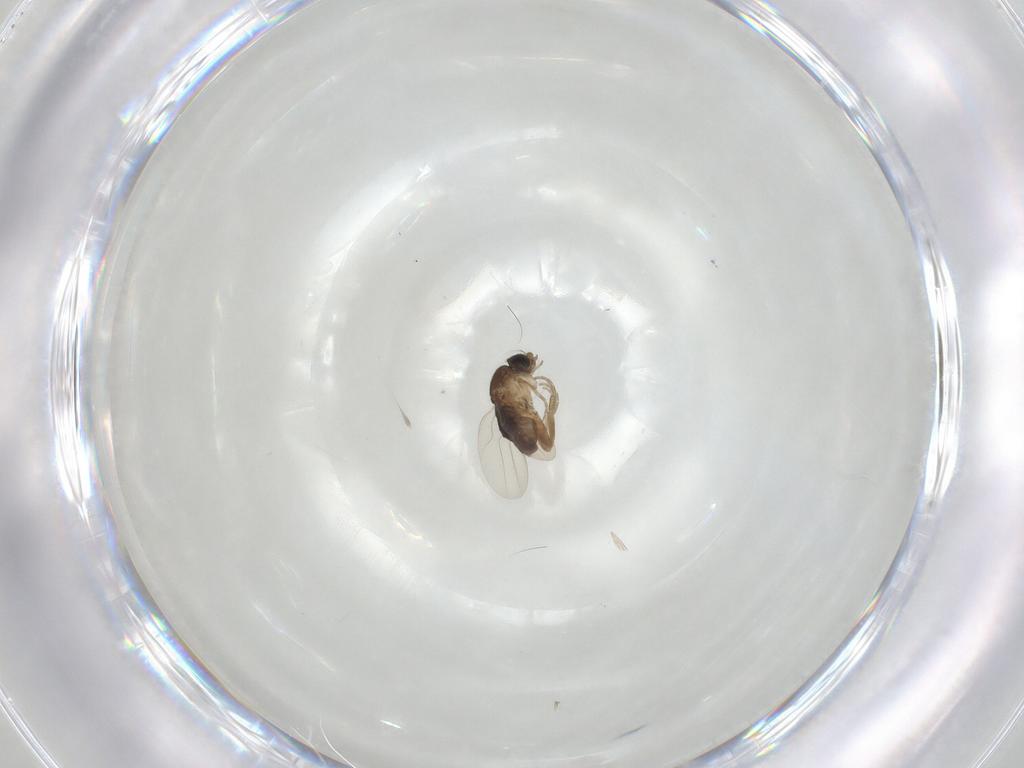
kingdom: Animalia
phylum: Arthropoda
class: Insecta
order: Diptera
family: Phoridae
